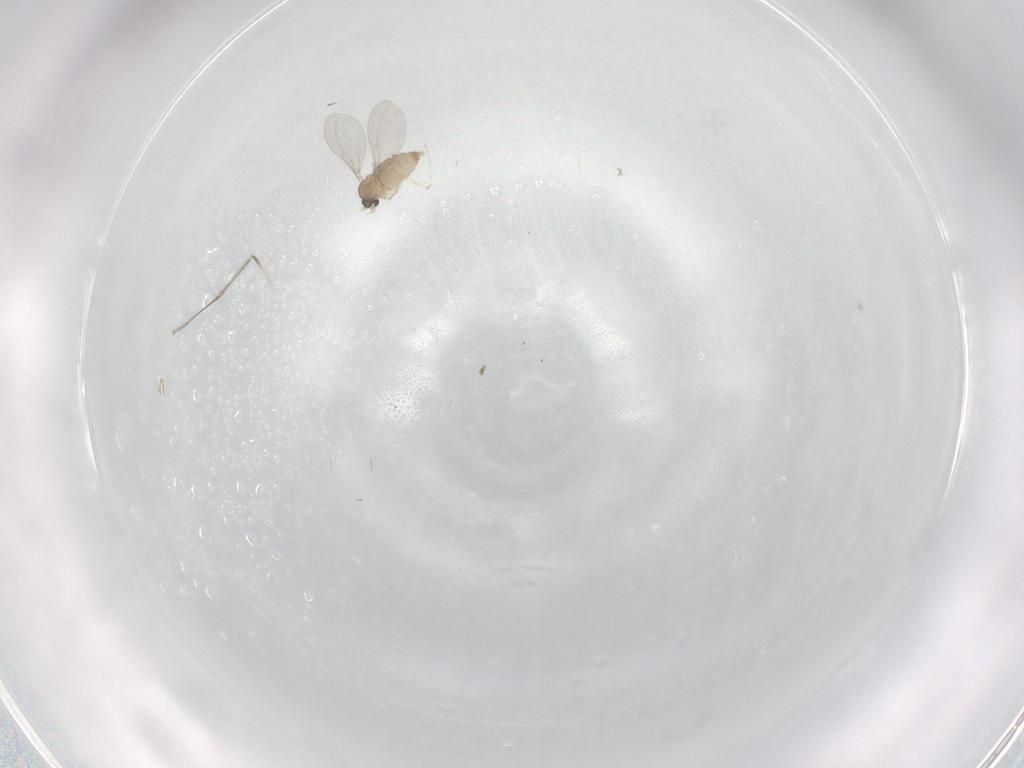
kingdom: Animalia
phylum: Arthropoda
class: Insecta
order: Diptera
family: Cecidomyiidae
